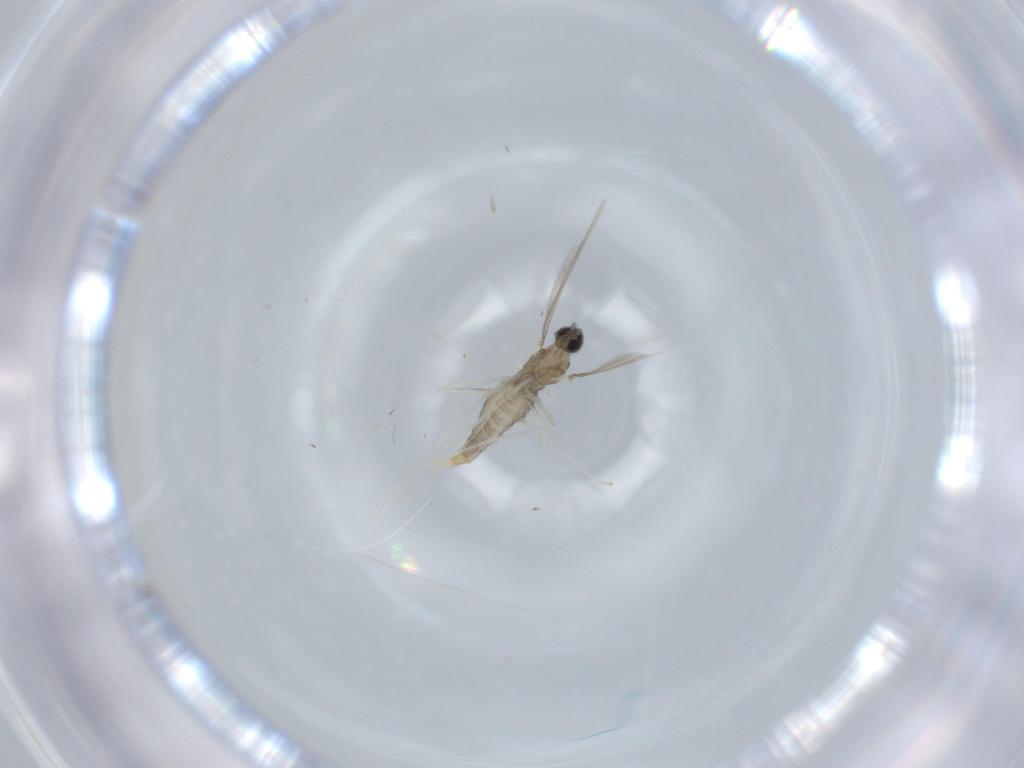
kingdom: Animalia
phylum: Arthropoda
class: Insecta
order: Diptera
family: Cecidomyiidae
